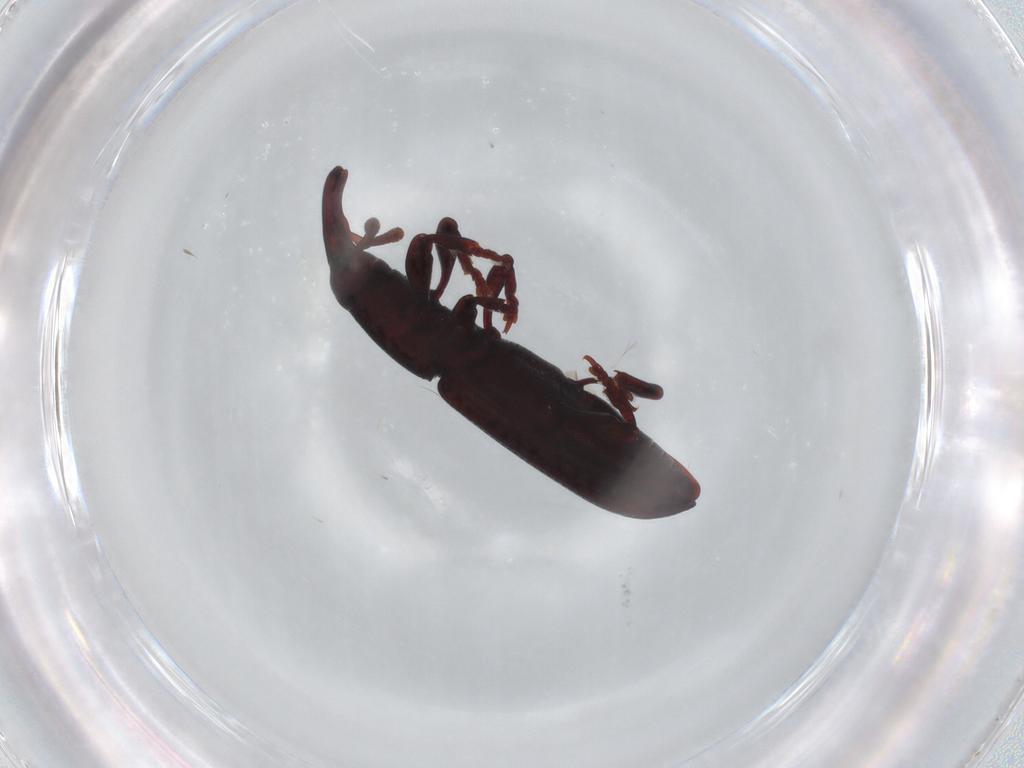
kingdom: Animalia
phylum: Arthropoda
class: Insecta
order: Coleoptera
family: Curculionidae
